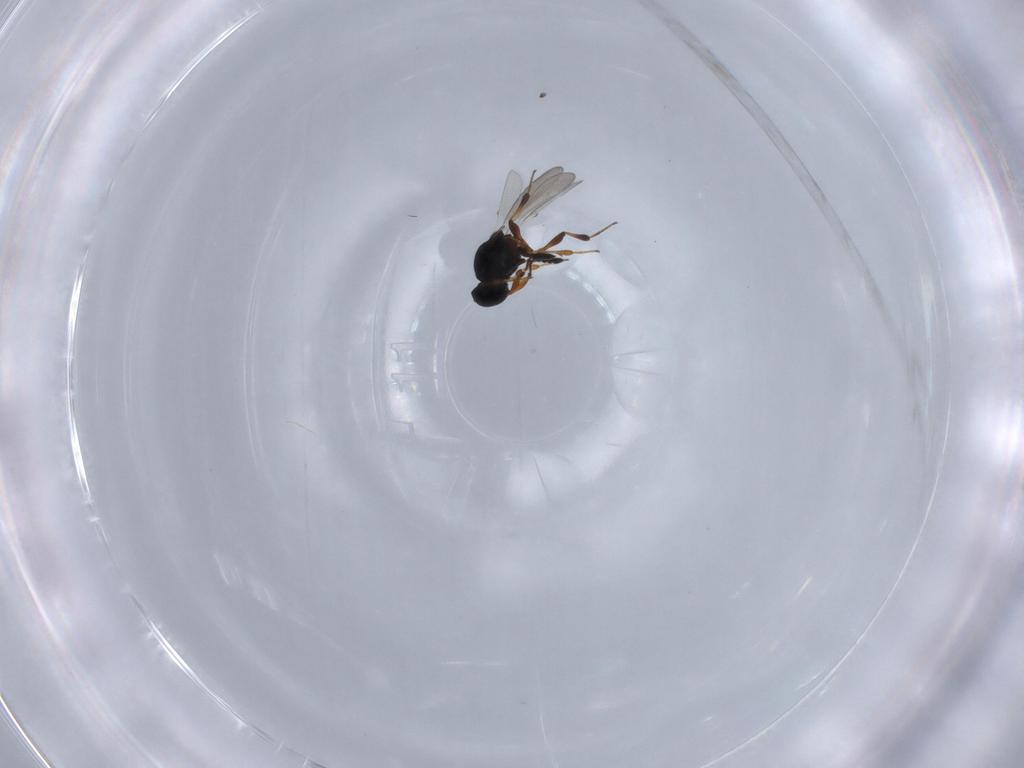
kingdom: Animalia
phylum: Arthropoda
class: Insecta
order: Hymenoptera
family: Platygastridae
